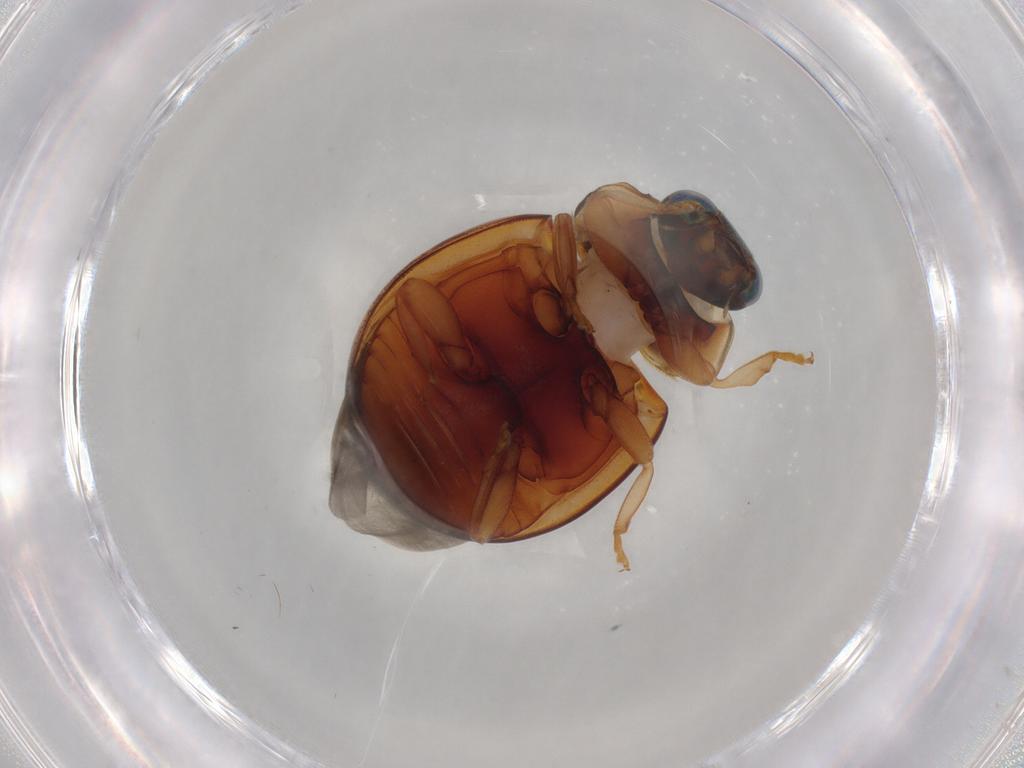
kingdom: Animalia
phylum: Arthropoda
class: Insecta
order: Coleoptera
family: Coccinellidae
